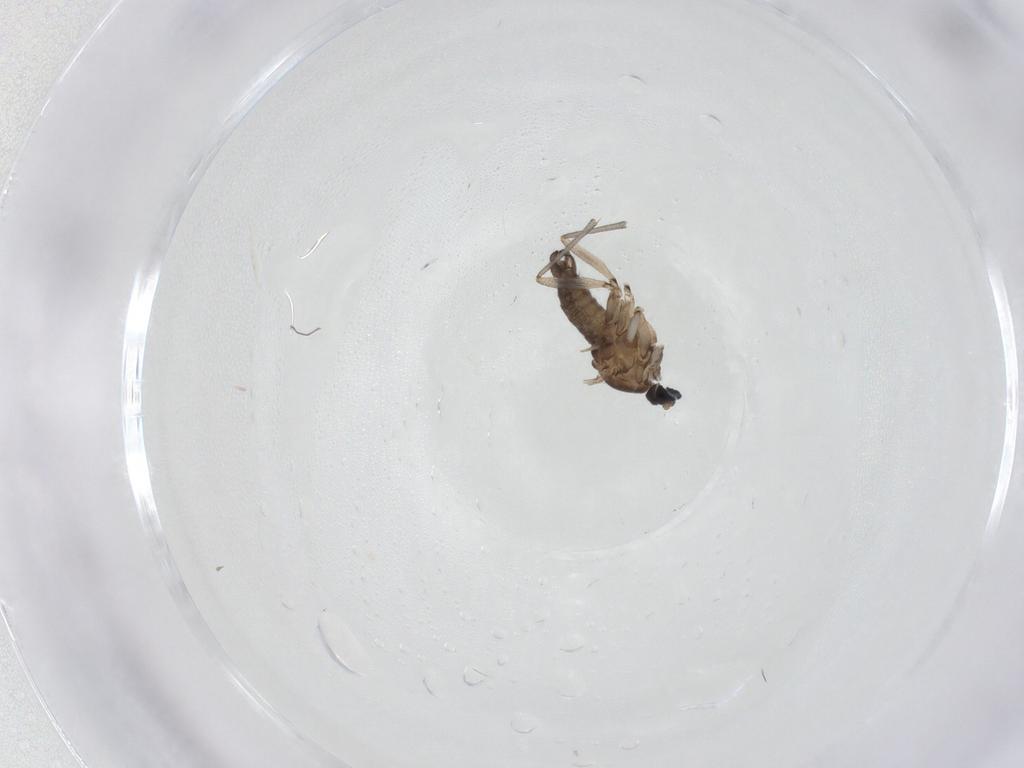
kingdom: Animalia
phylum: Arthropoda
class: Insecta
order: Diptera
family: Sciaridae
